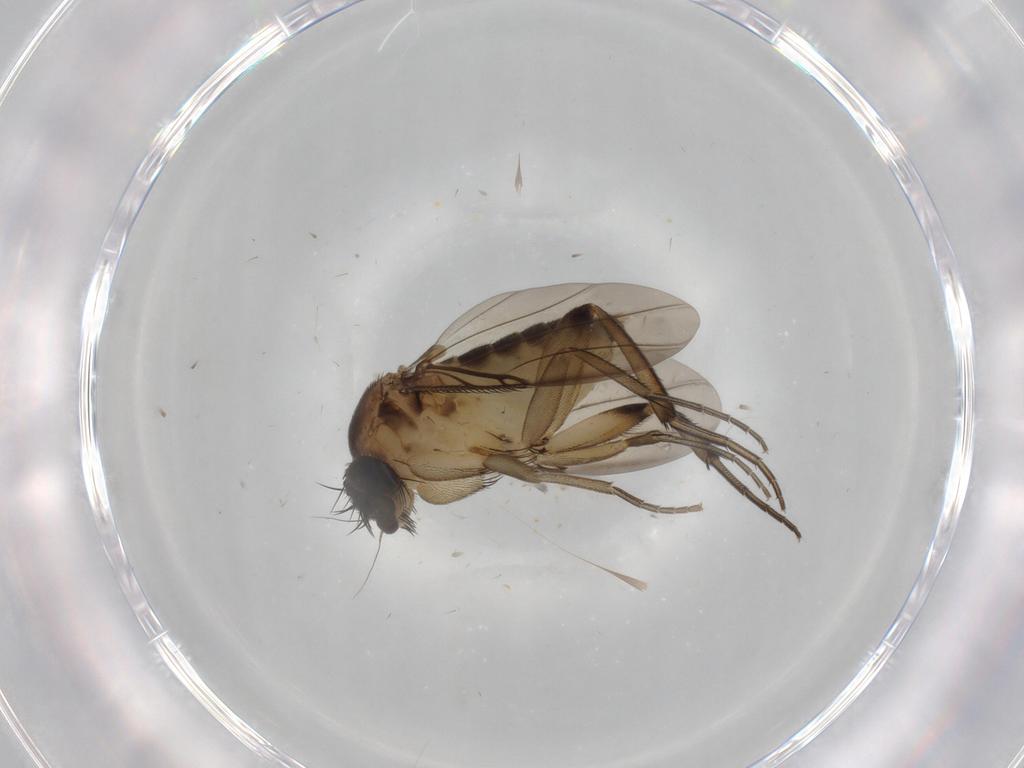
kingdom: Animalia
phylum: Arthropoda
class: Insecta
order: Diptera
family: Phoridae
